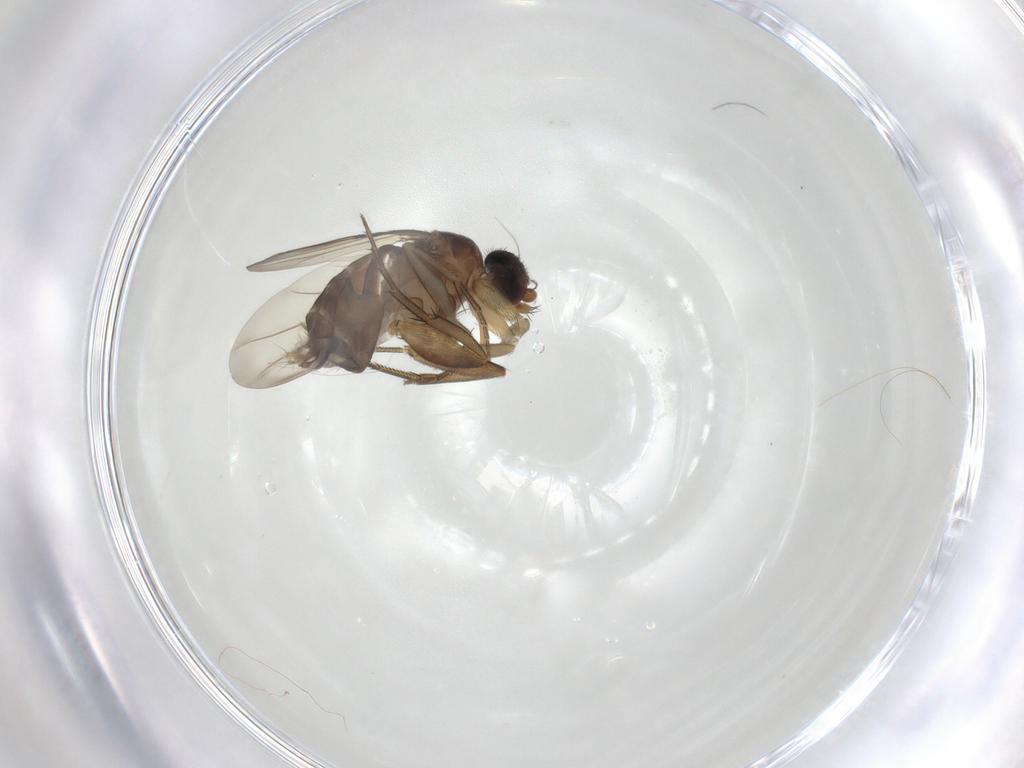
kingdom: Animalia
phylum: Arthropoda
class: Insecta
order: Diptera
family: Phoridae
